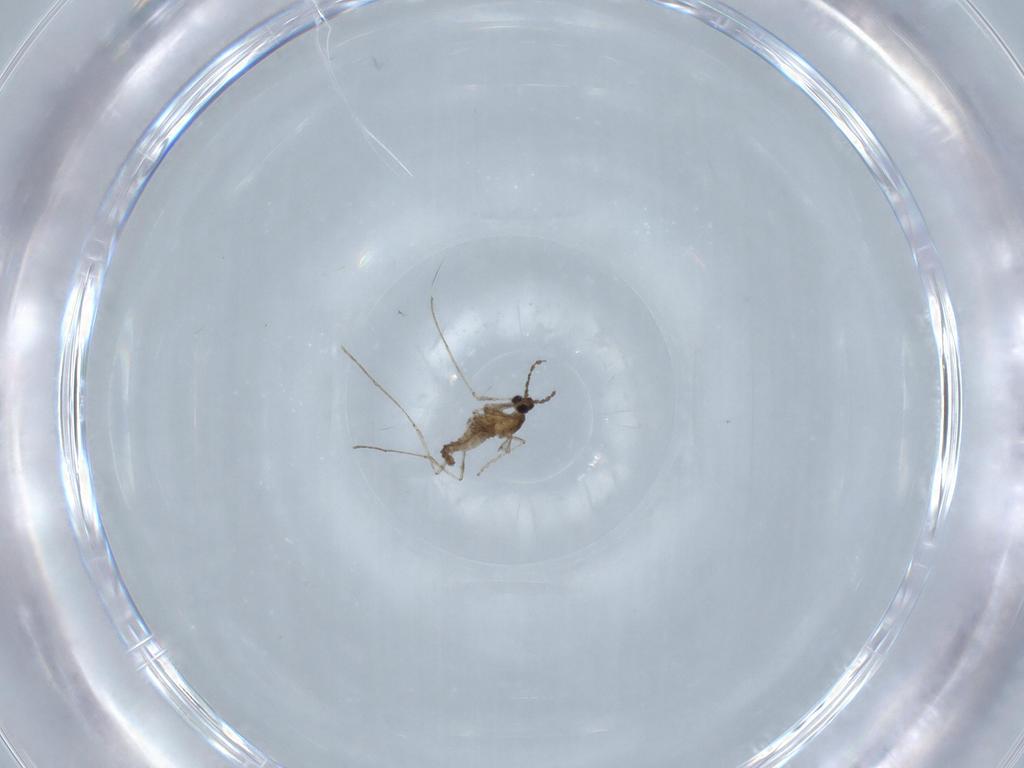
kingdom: Animalia
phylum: Arthropoda
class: Insecta
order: Diptera
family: Cecidomyiidae
